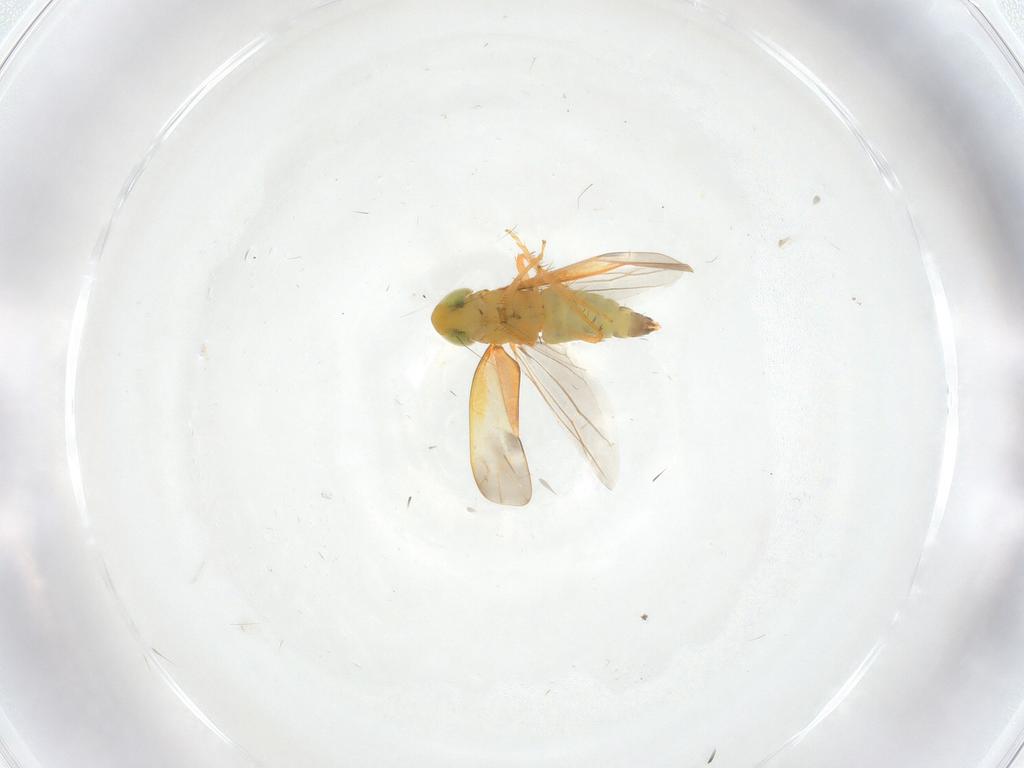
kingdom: Animalia
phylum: Arthropoda
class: Insecta
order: Hemiptera
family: Cicadellidae
